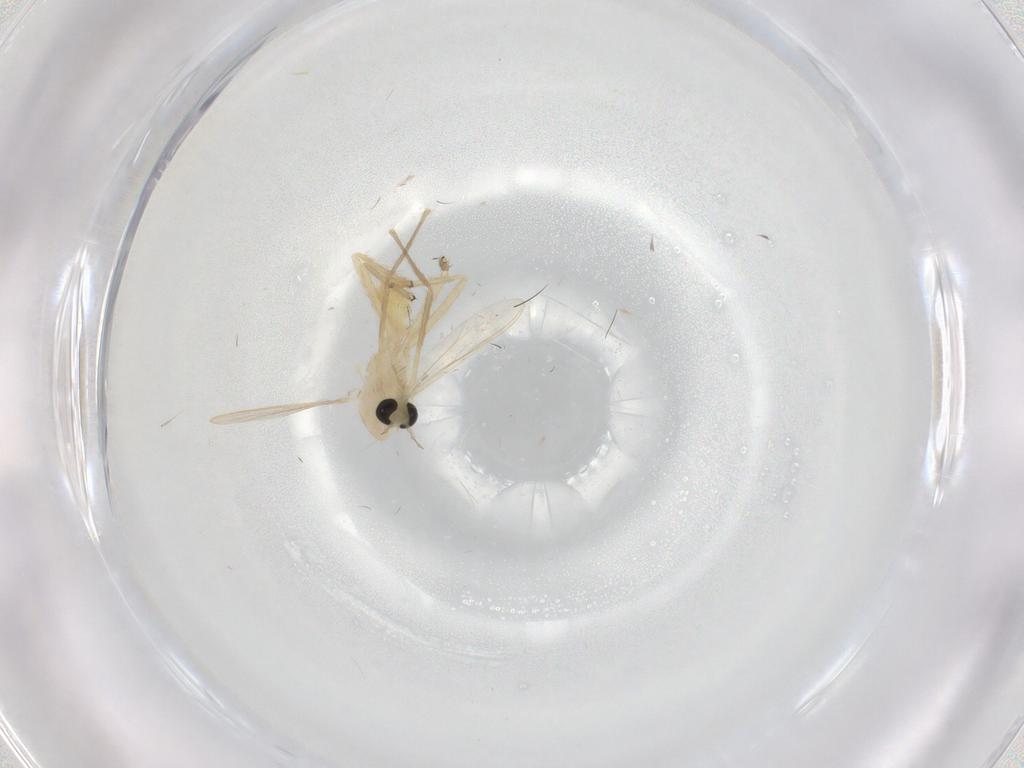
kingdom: Animalia
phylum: Arthropoda
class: Insecta
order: Diptera
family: Chironomidae
